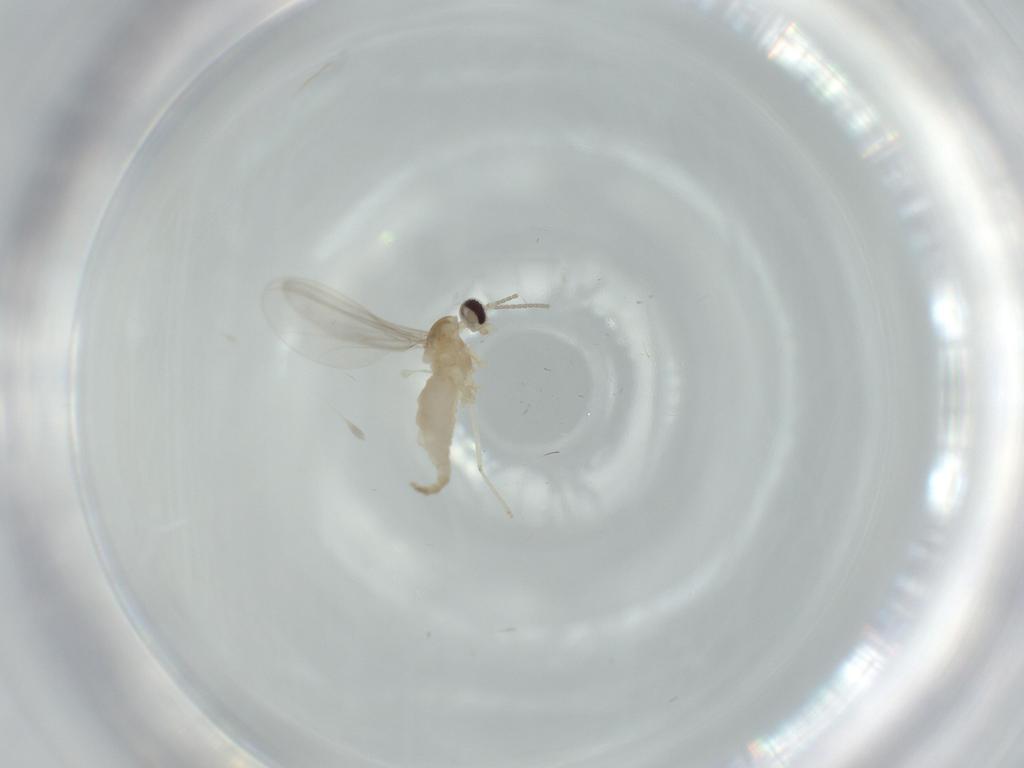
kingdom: Animalia
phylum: Arthropoda
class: Insecta
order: Diptera
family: Cecidomyiidae
